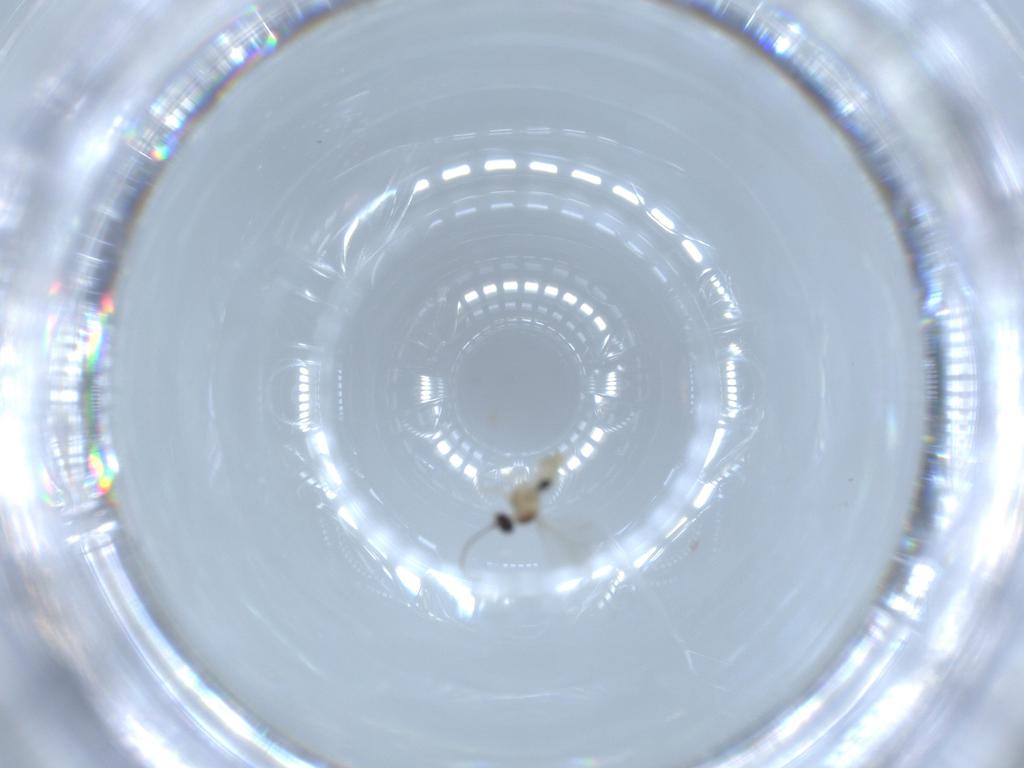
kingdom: Animalia
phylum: Arthropoda
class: Insecta
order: Diptera
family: Cecidomyiidae
